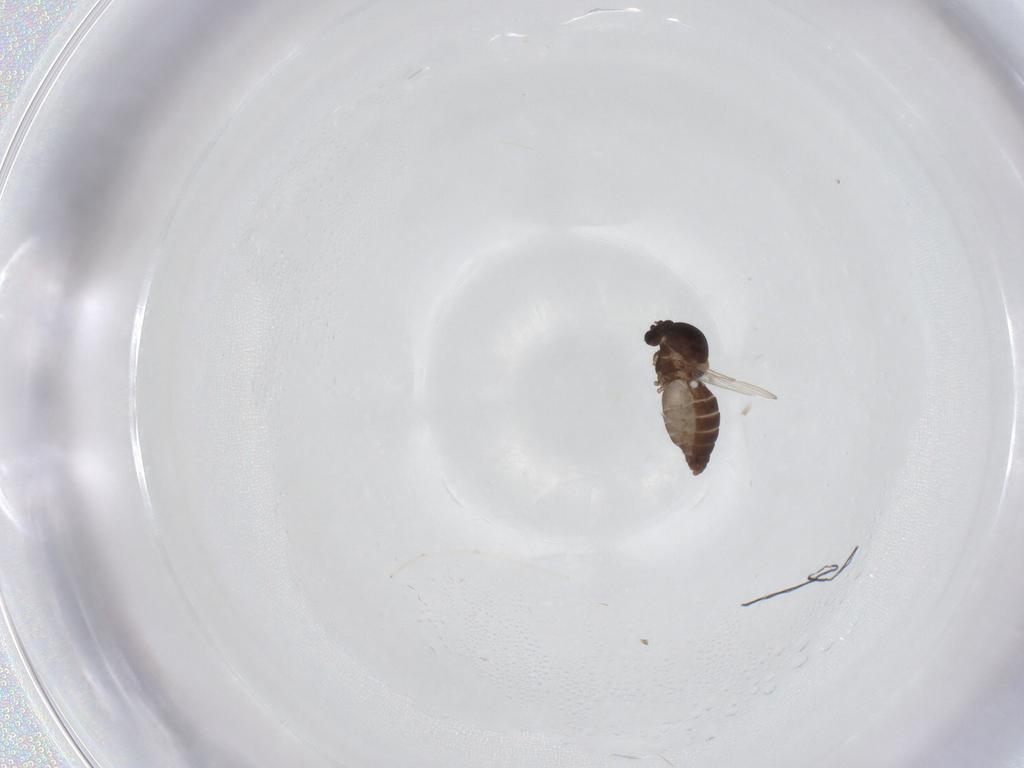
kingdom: Animalia
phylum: Arthropoda
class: Insecta
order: Diptera
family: Ceratopogonidae
